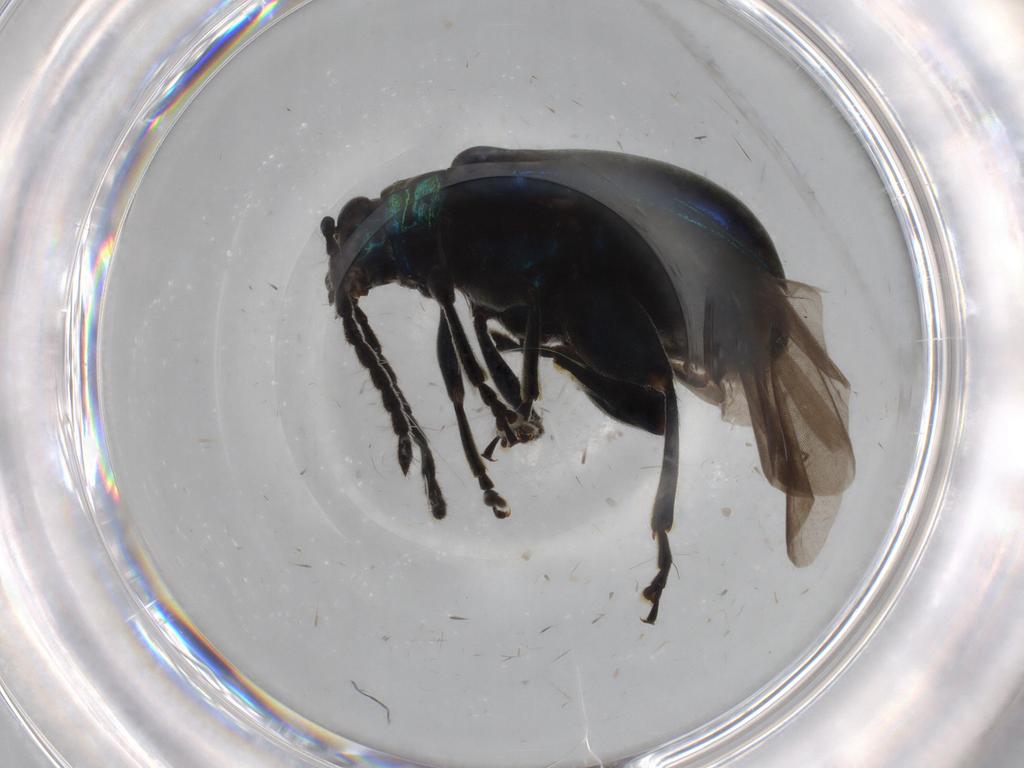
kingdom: Animalia
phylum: Arthropoda
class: Insecta
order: Coleoptera
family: Chrysomelidae
